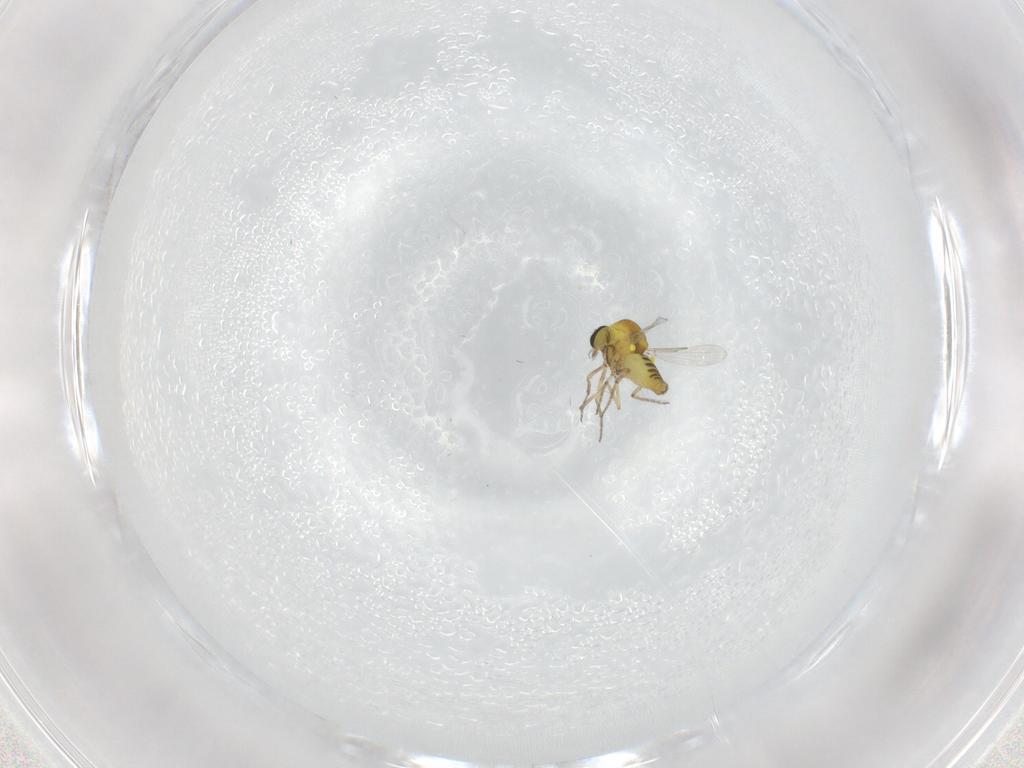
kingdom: Animalia
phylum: Arthropoda
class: Insecta
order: Diptera
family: Ceratopogonidae
